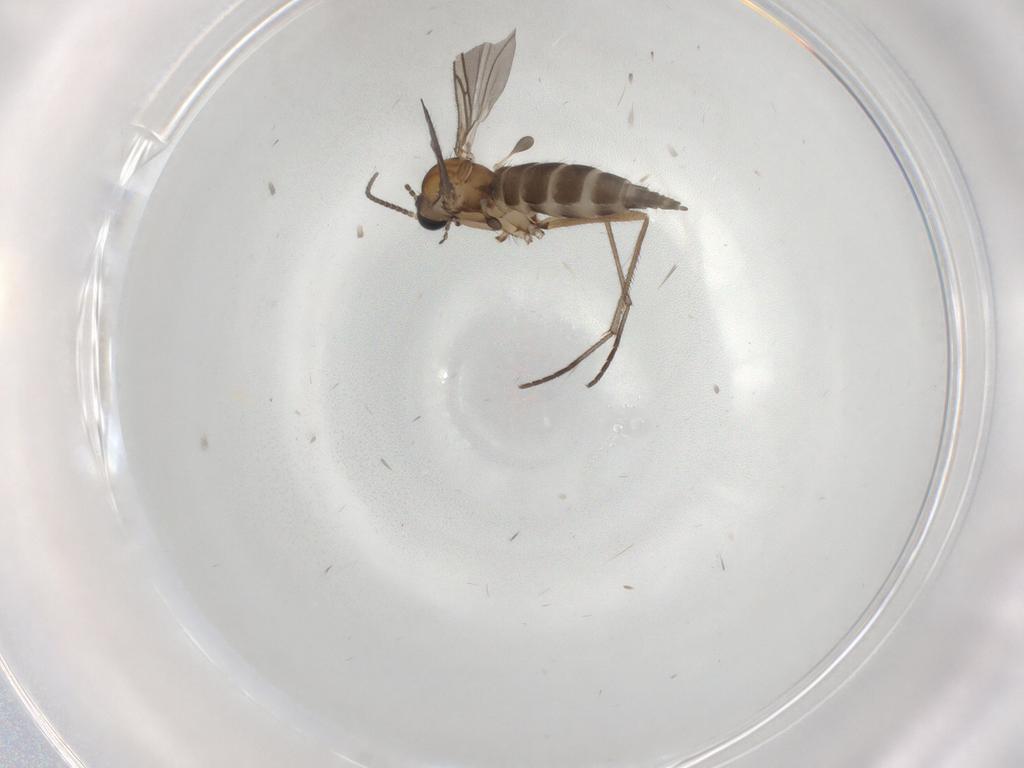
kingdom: Animalia
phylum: Arthropoda
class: Insecta
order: Diptera
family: Sciaridae
